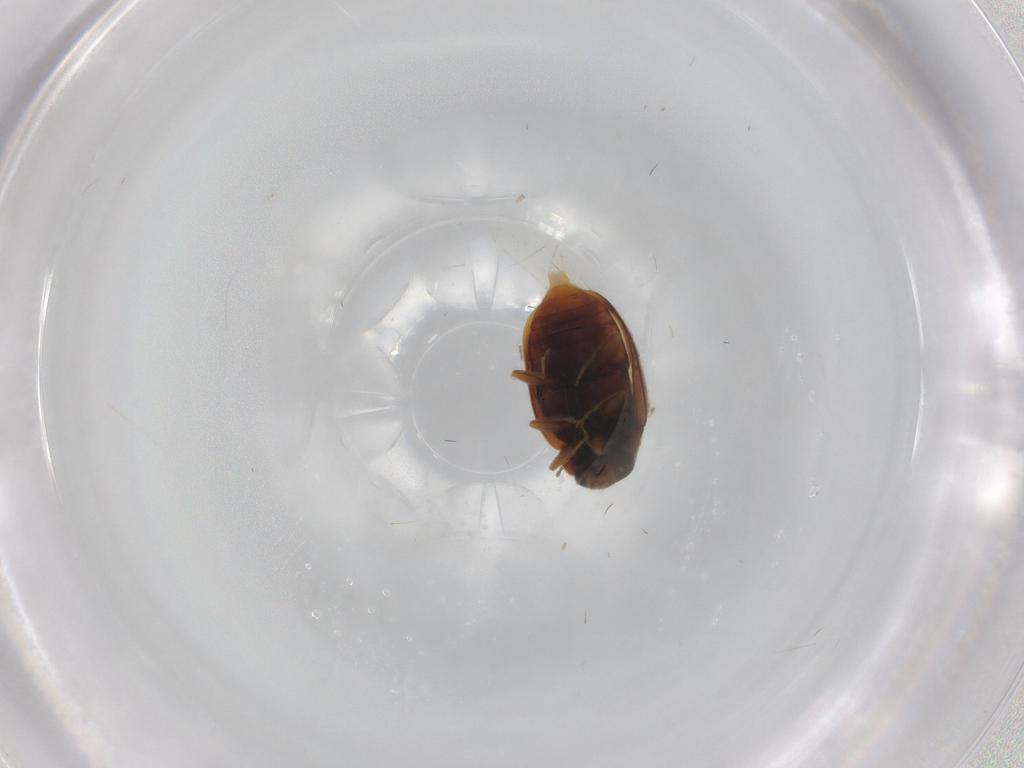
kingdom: Animalia
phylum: Arthropoda
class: Insecta
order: Coleoptera
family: Coccinellidae
